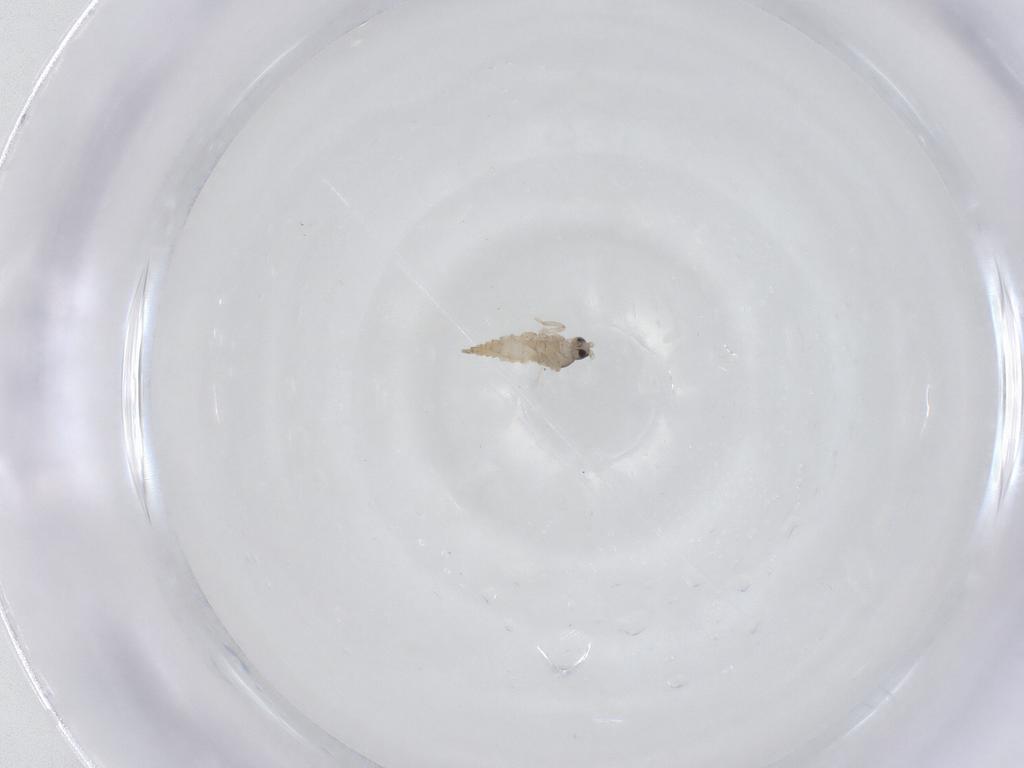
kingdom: Animalia
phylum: Arthropoda
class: Insecta
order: Diptera
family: Cecidomyiidae
